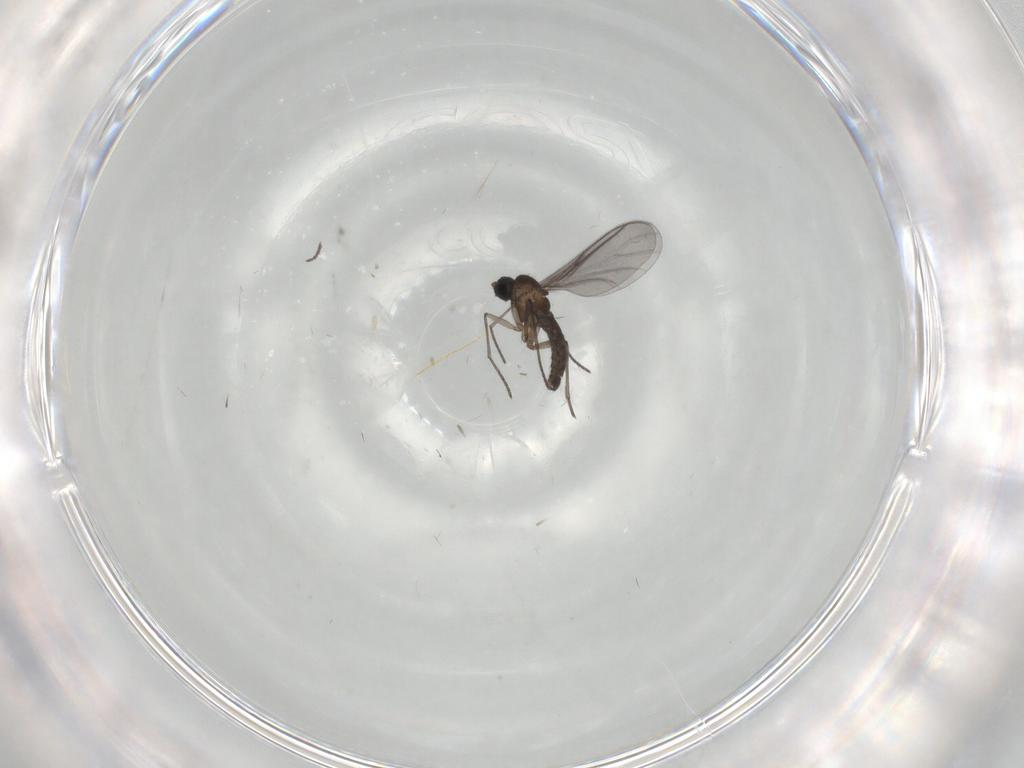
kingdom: Animalia
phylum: Arthropoda
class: Insecta
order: Diptera
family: Sciaridae
